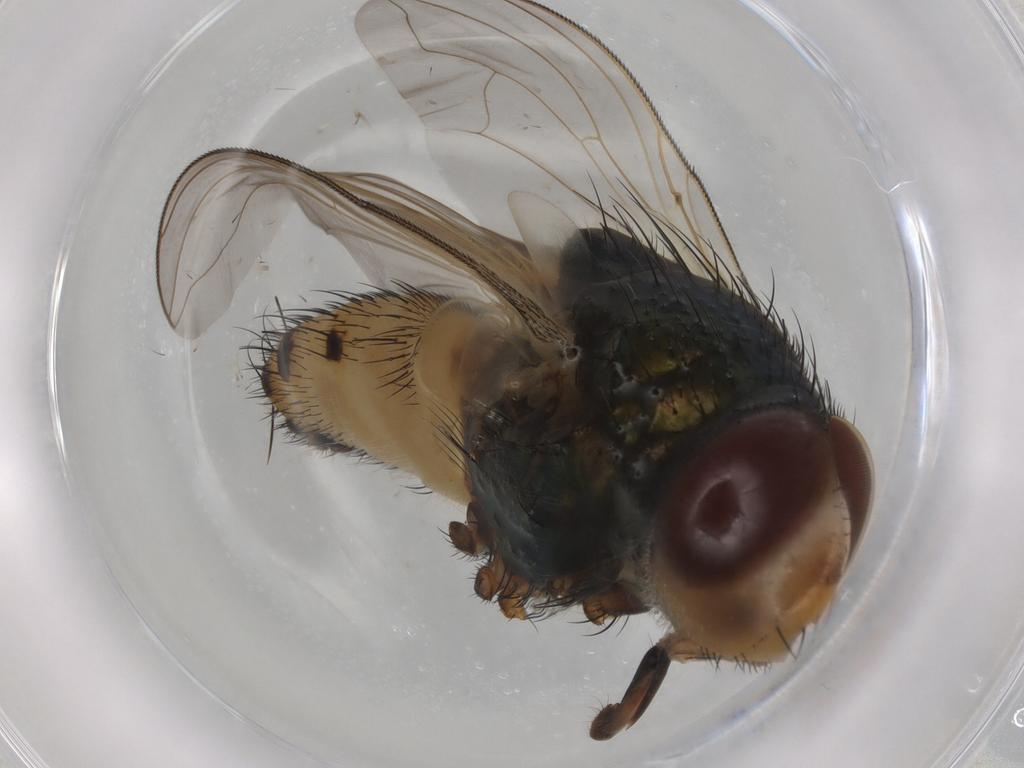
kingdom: Animalia
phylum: Arthropoda
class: Insecta
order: Diptera
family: Calliphoridae
